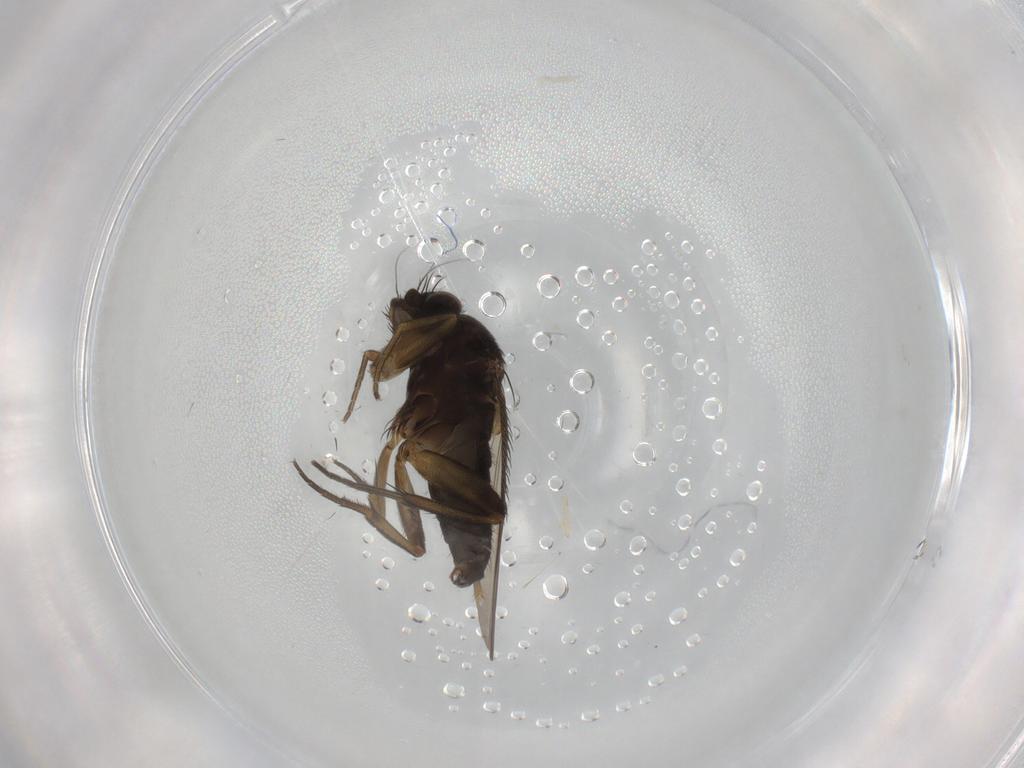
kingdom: Animalia
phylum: Arthropoda
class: Insecta
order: Diptera
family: Phoridae
